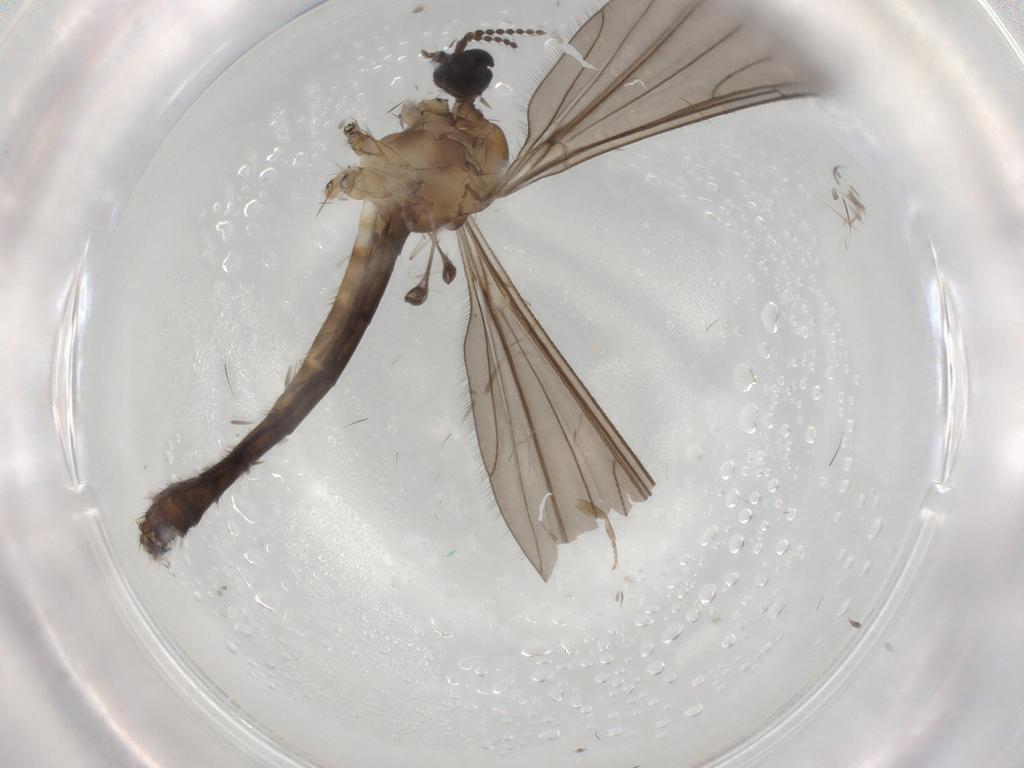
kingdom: Animalia
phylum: Arthropoda
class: Insecta
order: Diptera
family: Limoniidae
